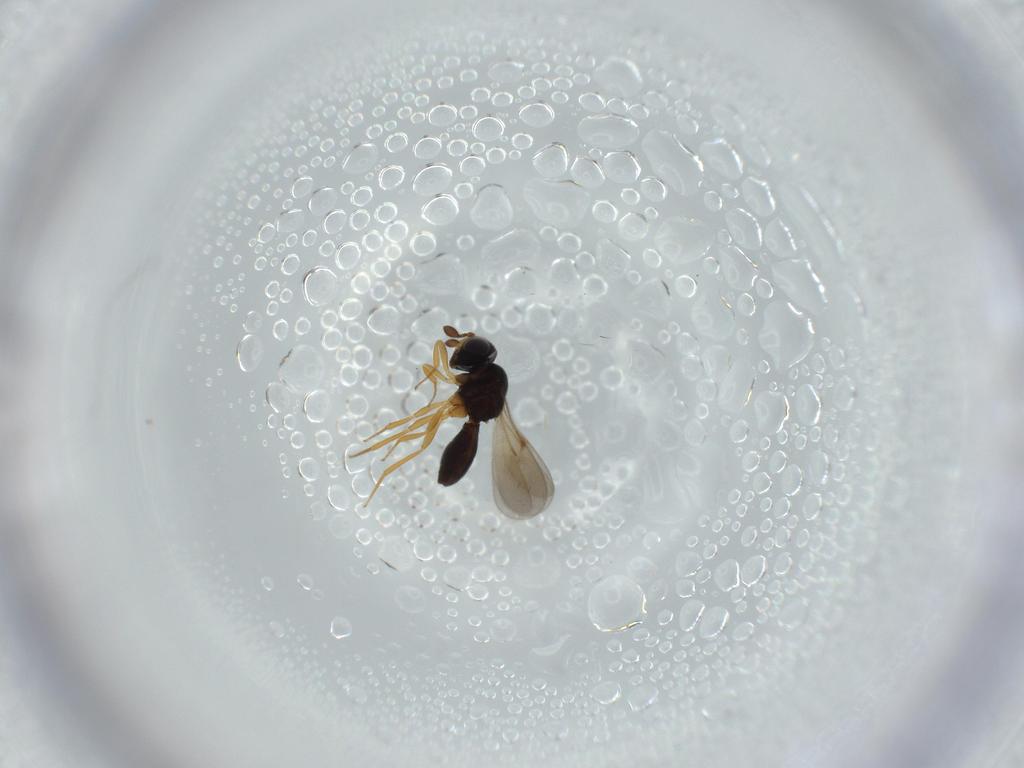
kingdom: Animalia
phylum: Arthropoda
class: Insecta
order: Hymenoptera
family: Scelionidae
